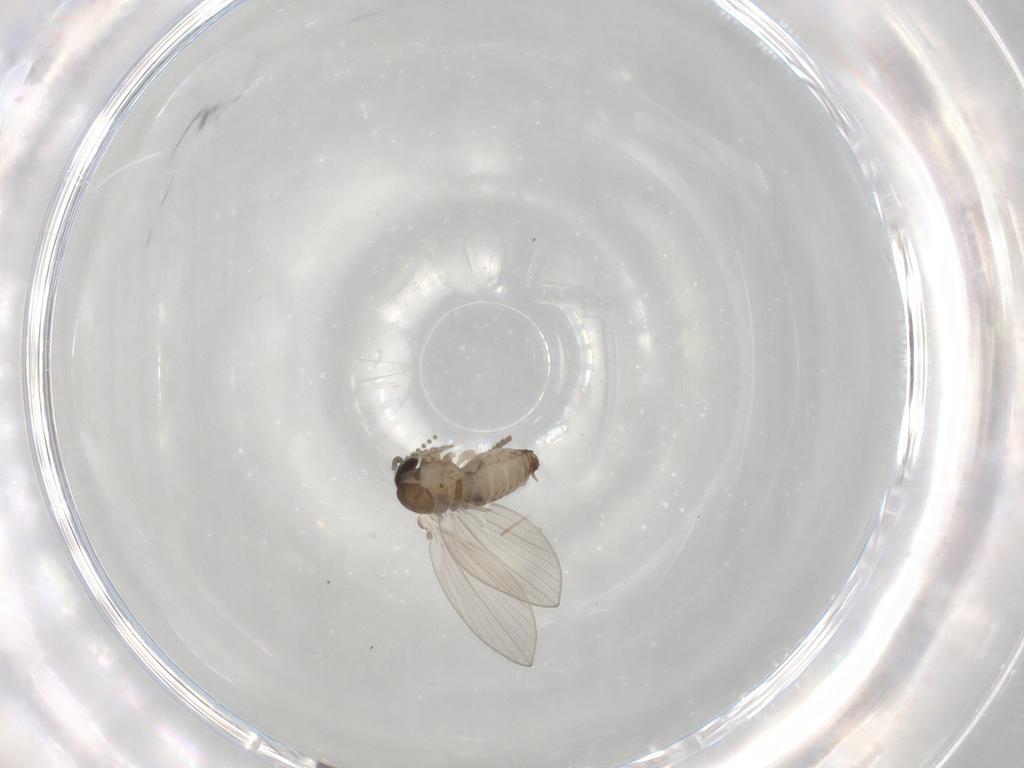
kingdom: Animalia
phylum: Arthropoda
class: Insecta
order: Diptera
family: Psychodidae
